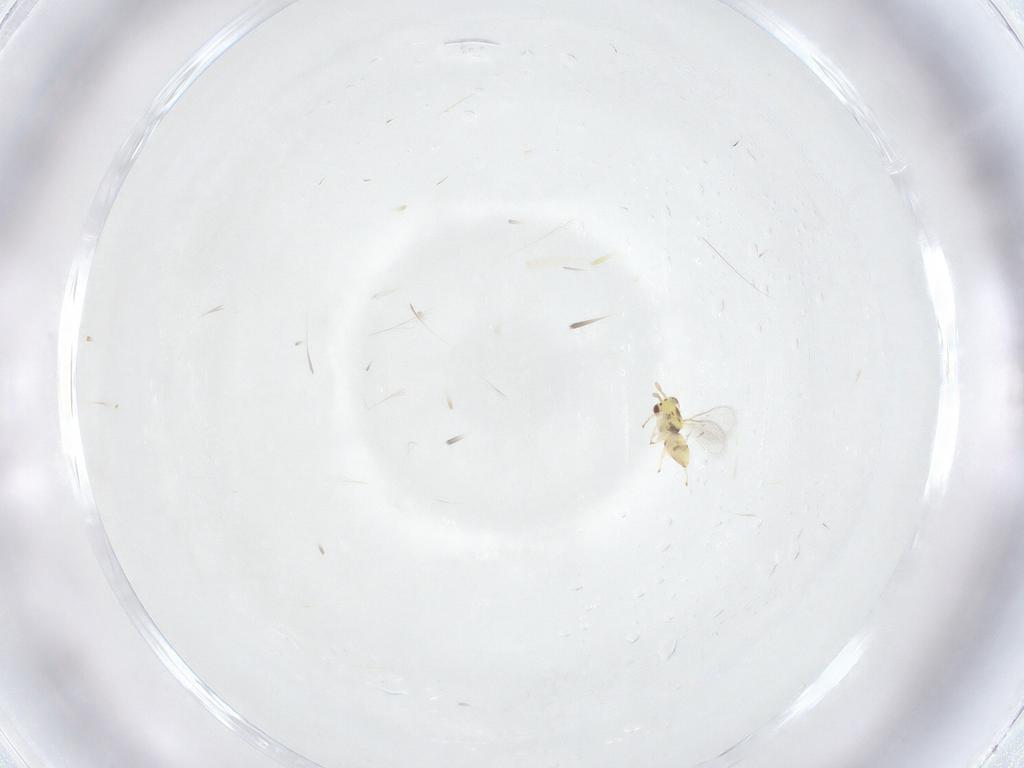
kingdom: Animalia
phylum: Arthropoda
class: Insecta
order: Hymenoptera
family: Eulophidae
